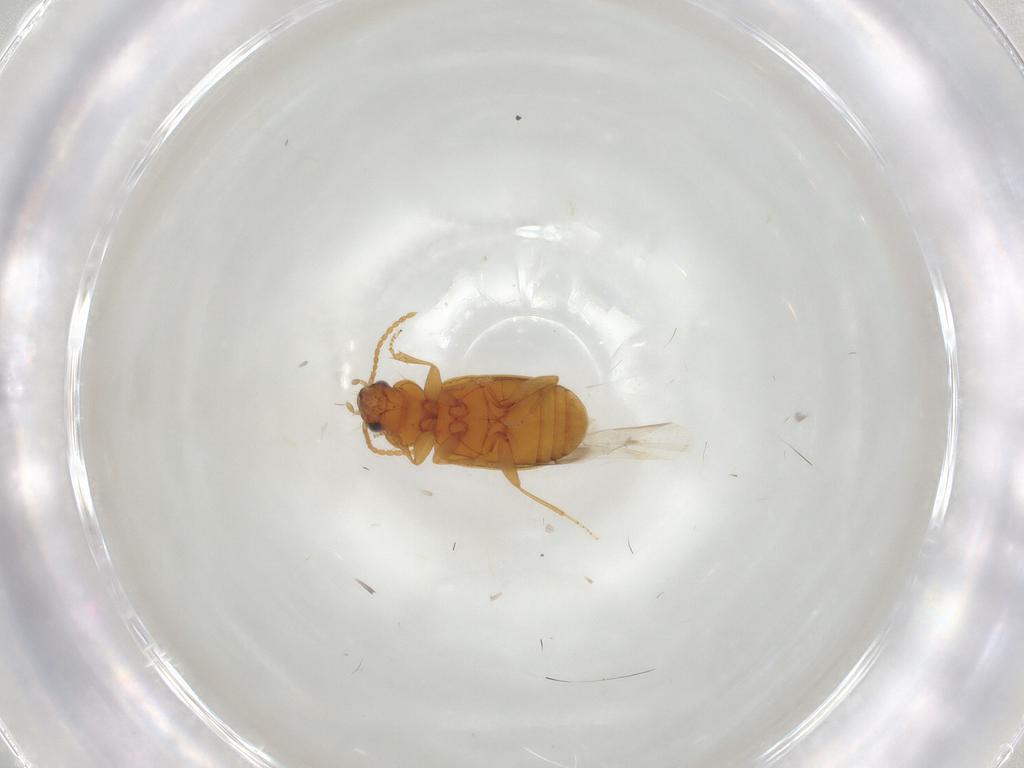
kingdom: Animalia
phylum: Arthropoda
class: Insecta
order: Coleoptera
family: Carabidae
